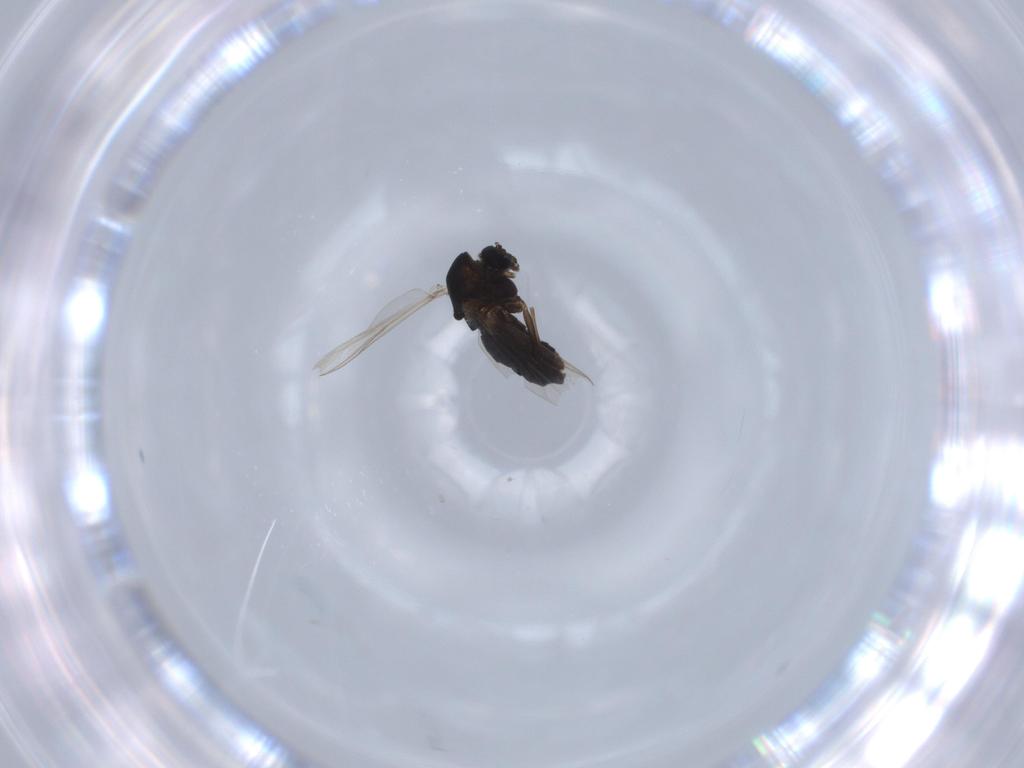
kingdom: Animalia
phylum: Arthropoda
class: Insecta
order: Diptera
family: Chironomidae
